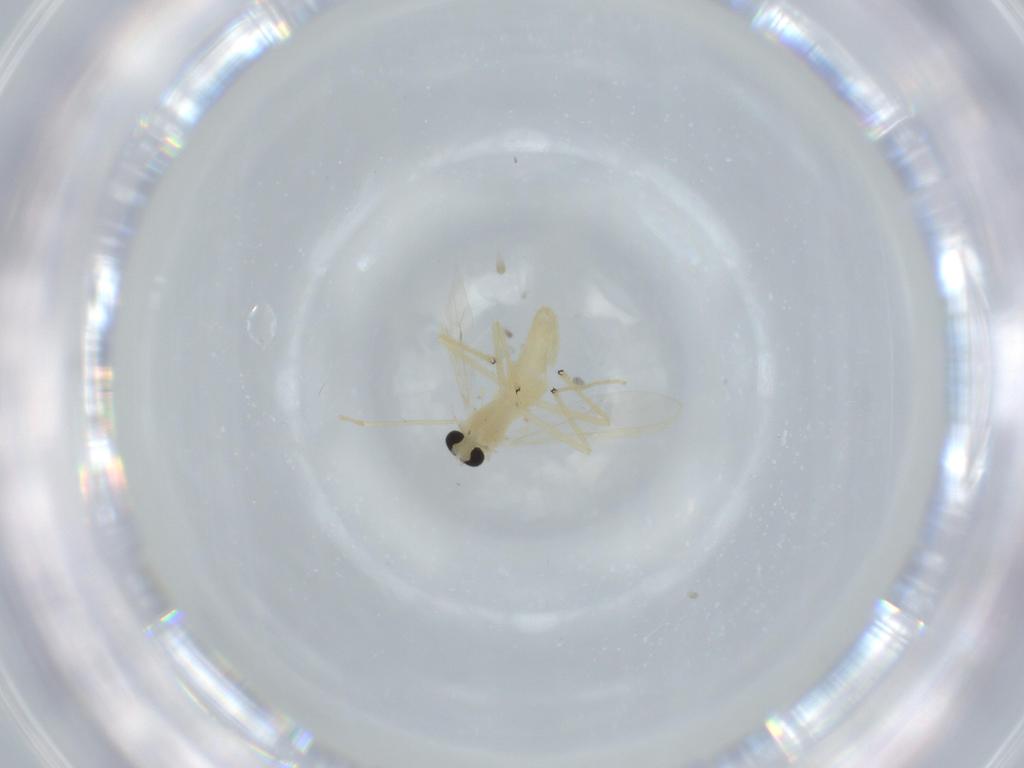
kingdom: Animalia
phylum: Arthropoda
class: Insecta
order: Diptera
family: Chironomidae
